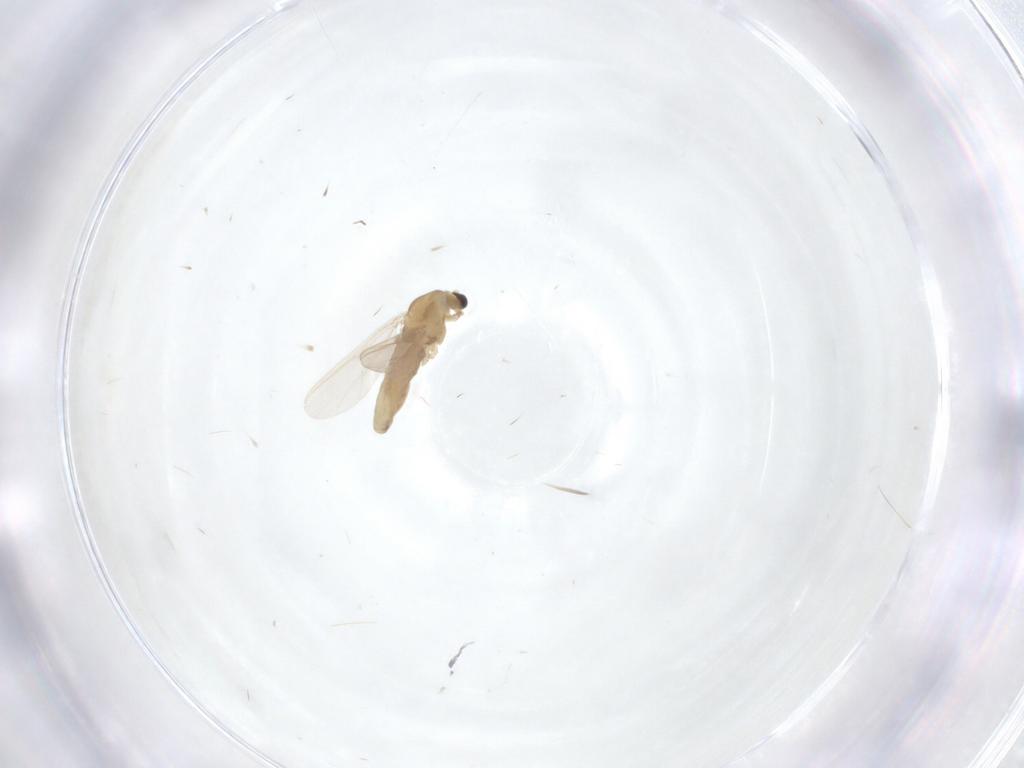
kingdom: Animalia
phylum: Arthropoda
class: Insecta
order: Diptera
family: Chironomidae
